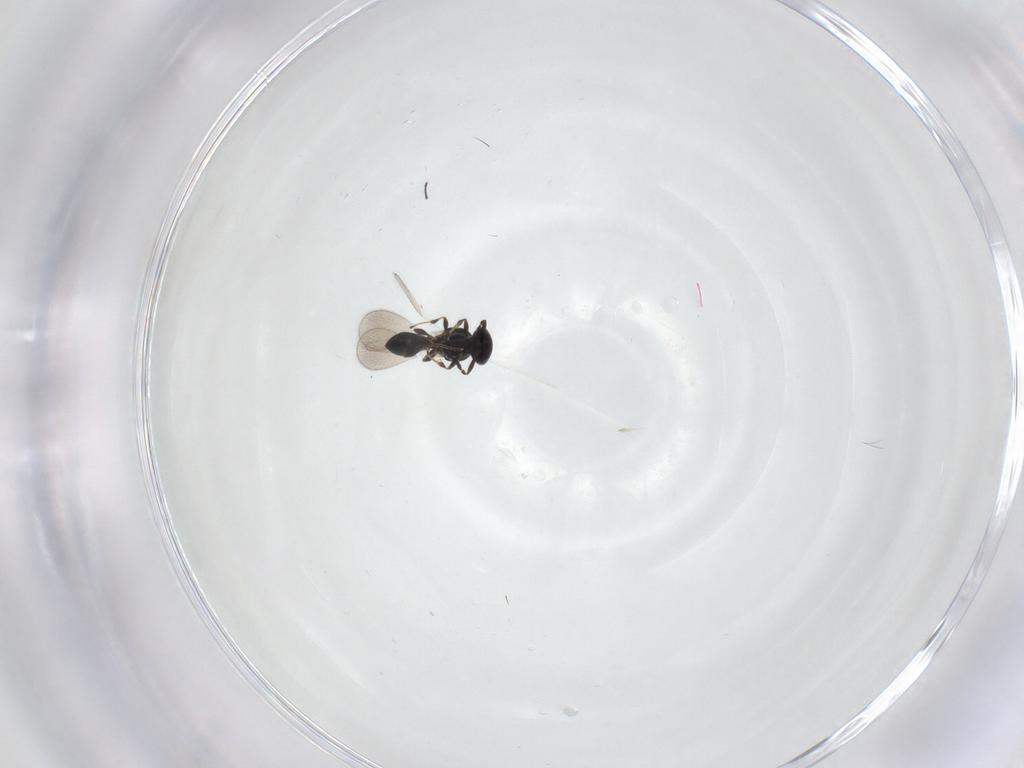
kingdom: Animalia
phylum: Arthropoda
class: Insecta
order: Hymenoptera
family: Platygastridae
